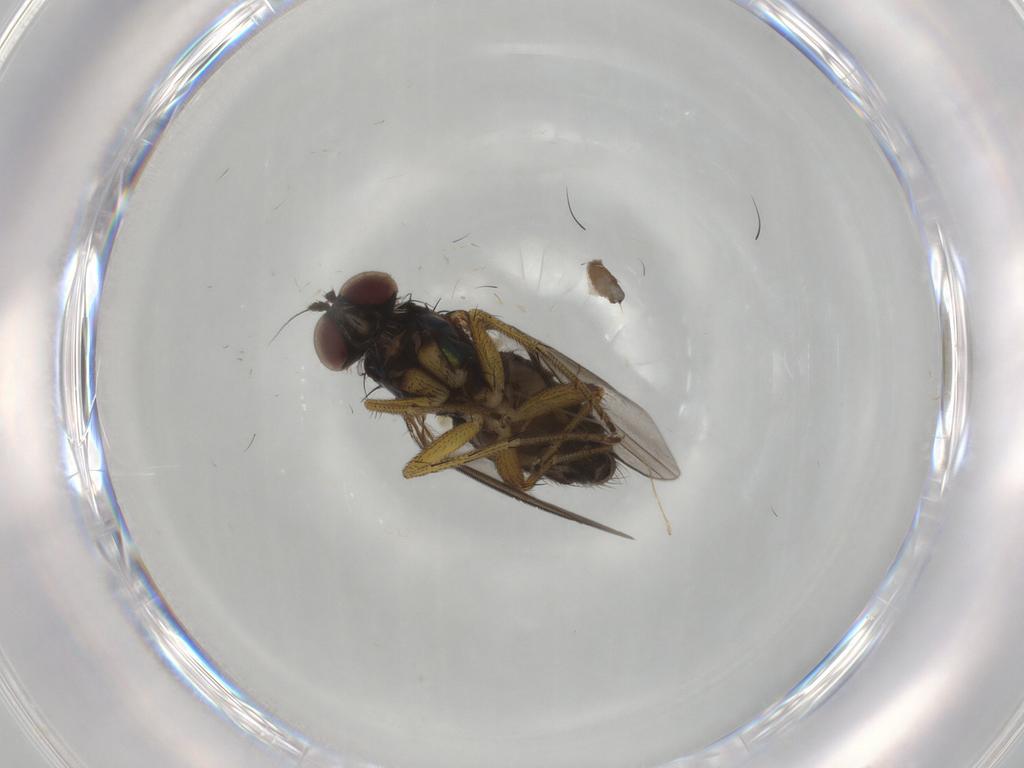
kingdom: Animalia
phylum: Arthropoda
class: Insecta
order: Diptera
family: Dolichopodidae
